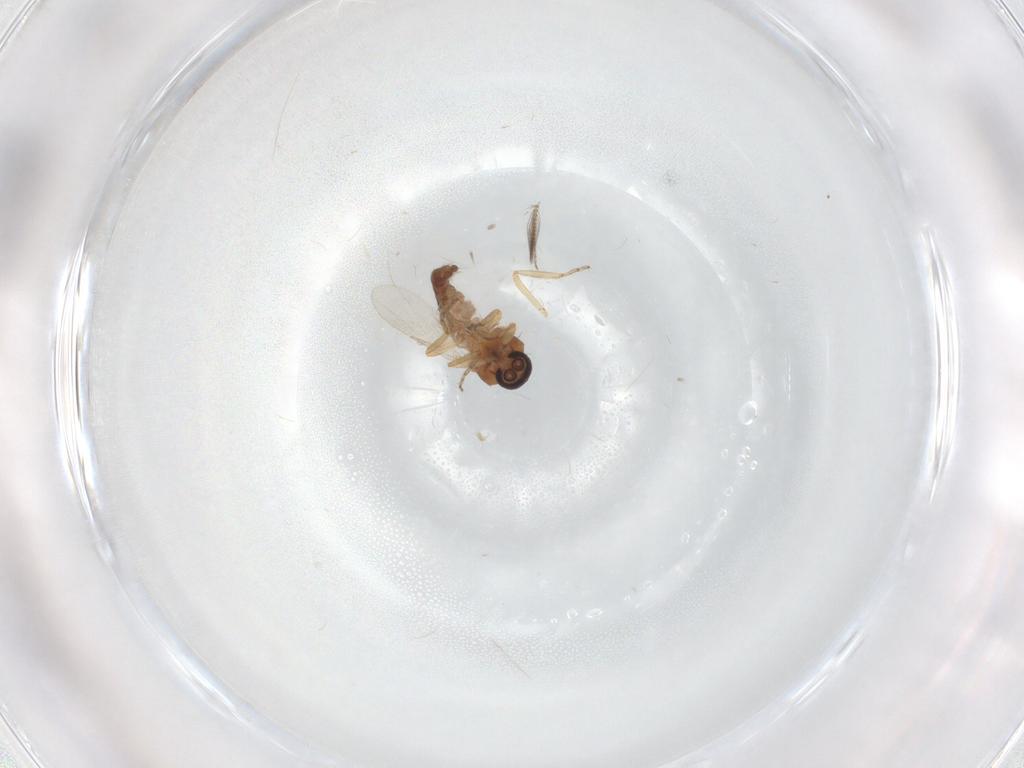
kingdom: Animalia
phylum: Arthropoda
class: Insecta
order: Diptera
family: Ceratopogonidae
